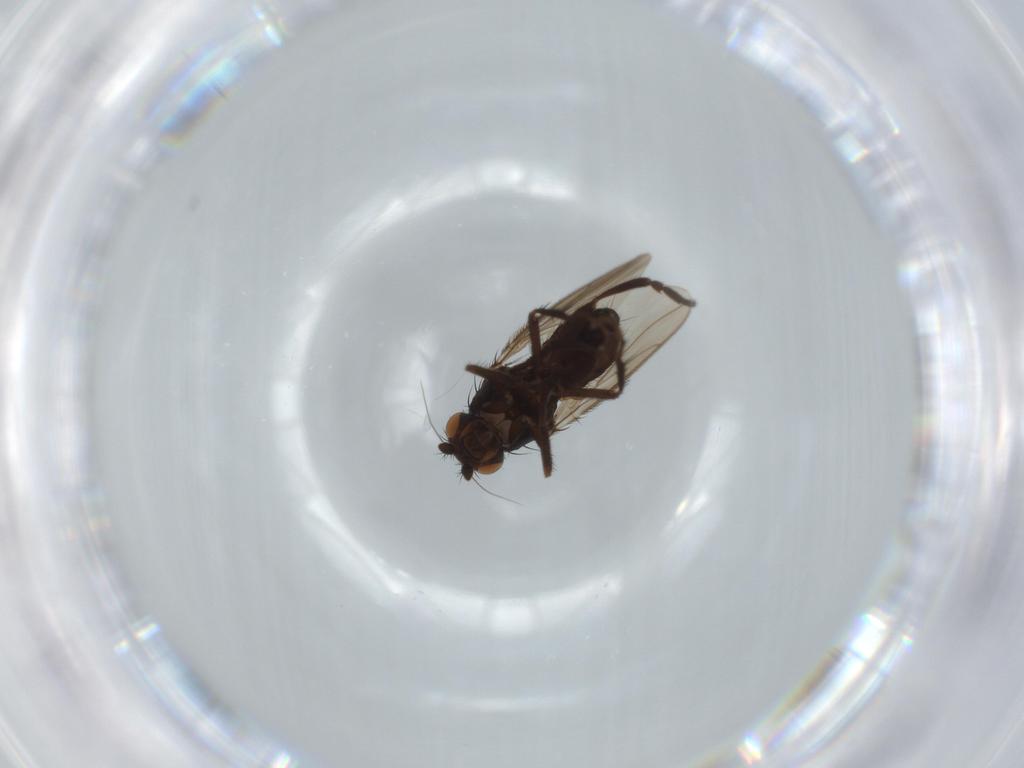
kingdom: Animalia
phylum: Arthropoda
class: Insecta
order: Diptera
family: Sphaeroceridae
